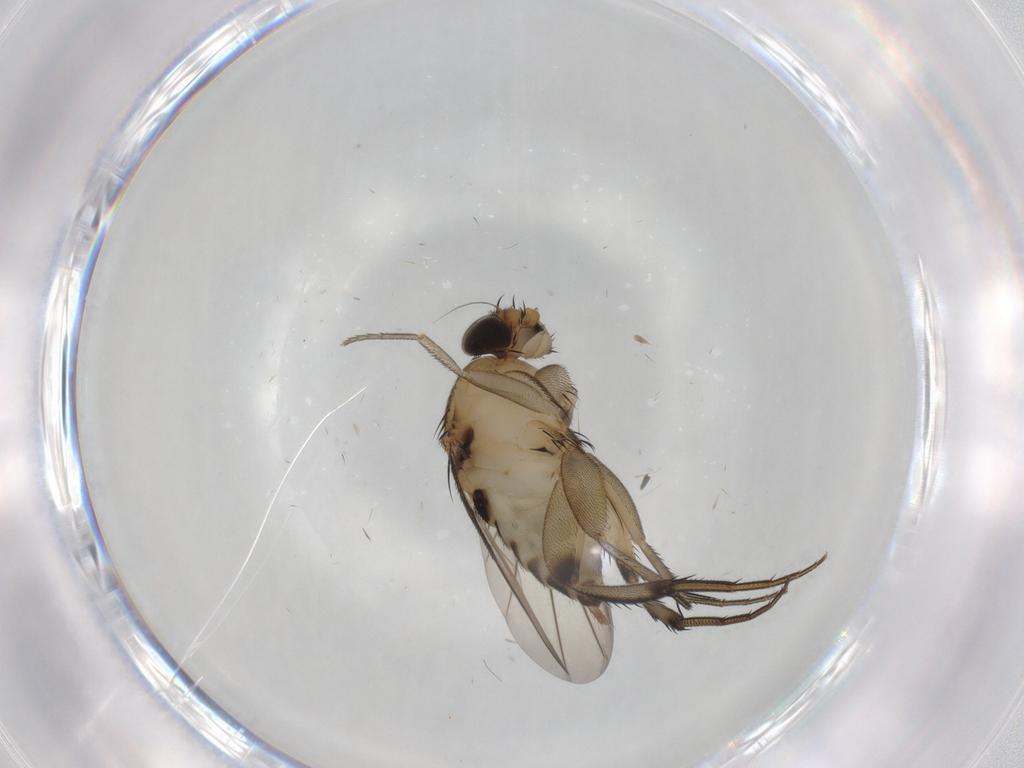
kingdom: Animalia
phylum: Arthropoda
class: Insecta
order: Diptera
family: Phoridae
